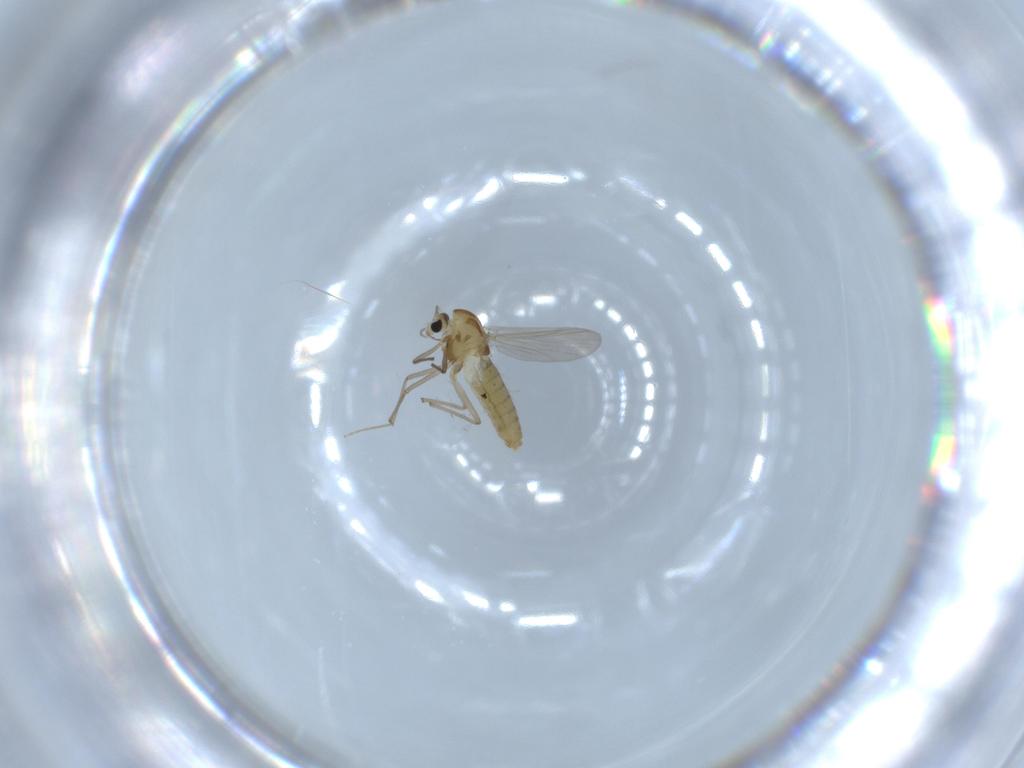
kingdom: Animalia
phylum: Arthropoda
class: Insecta
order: Diptera
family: Chironomidae
